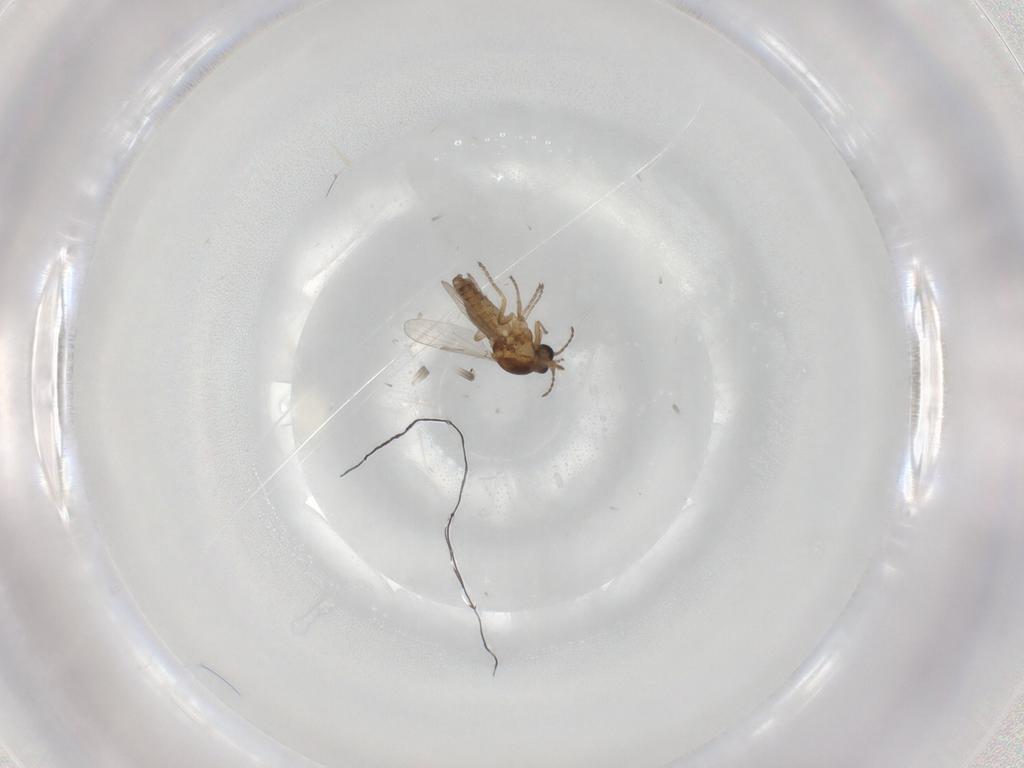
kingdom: Animalia
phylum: Arthropoda
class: Insecta
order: Diptera
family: Ceratopogonidae
